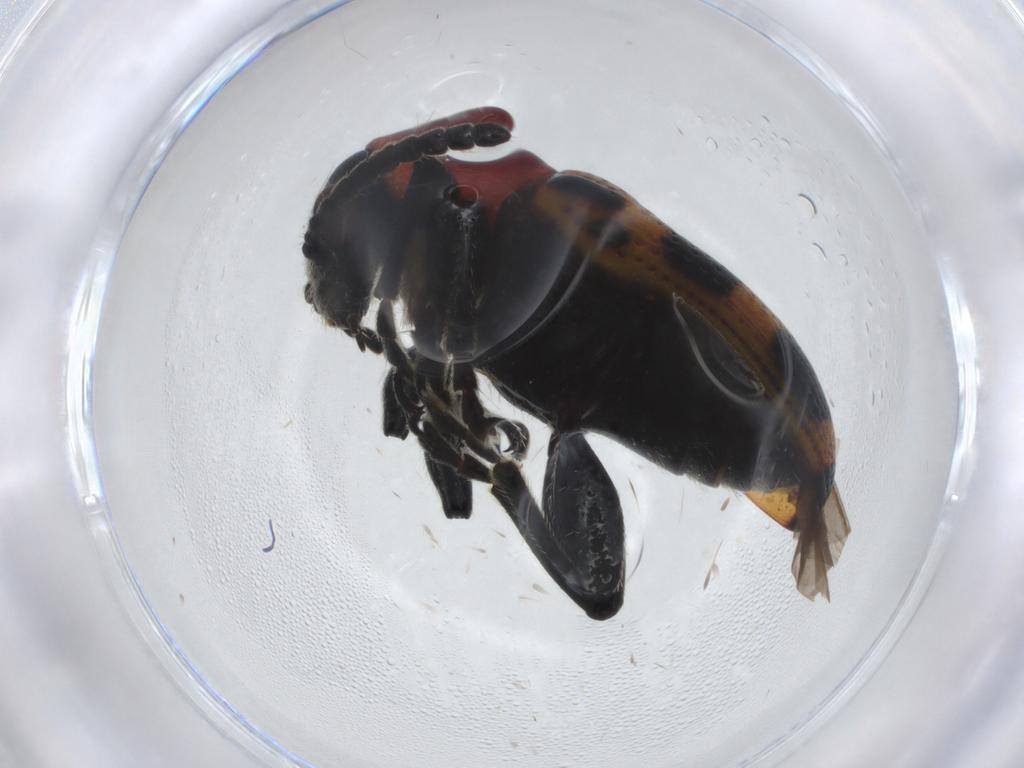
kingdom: Animalia
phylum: Arthropoda
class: Insecta
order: Coleoptera
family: Chrysomelidae
